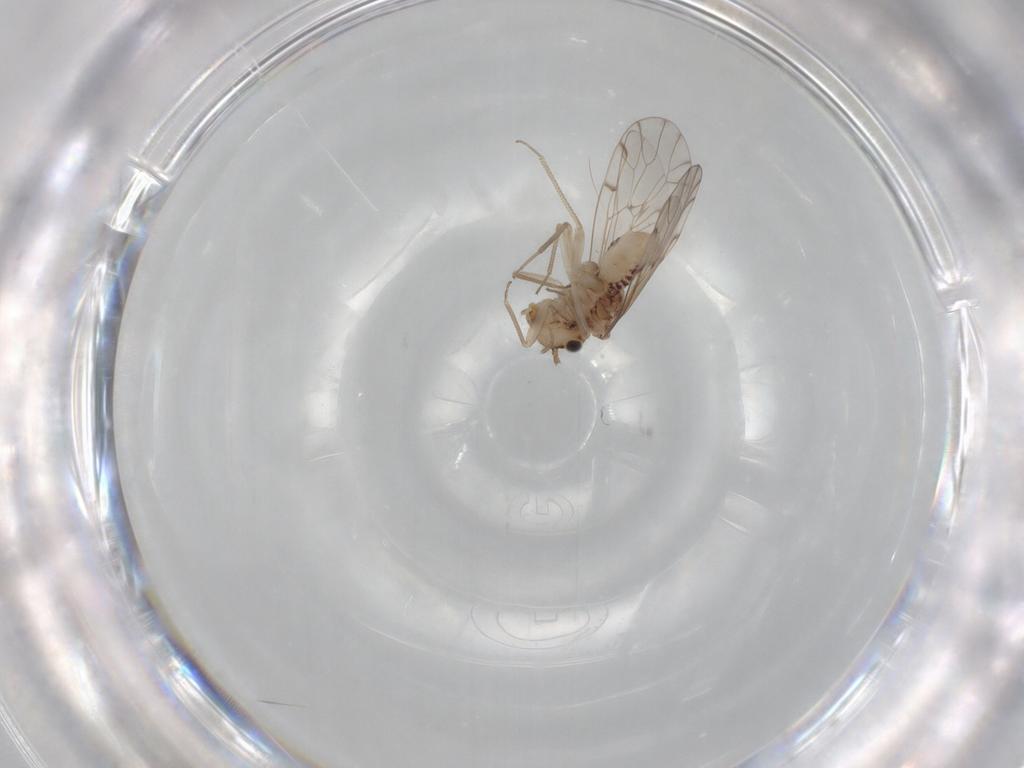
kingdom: Animalia
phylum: Arthropoda
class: Insecta
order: Psocodea
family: Ectopsocidae
